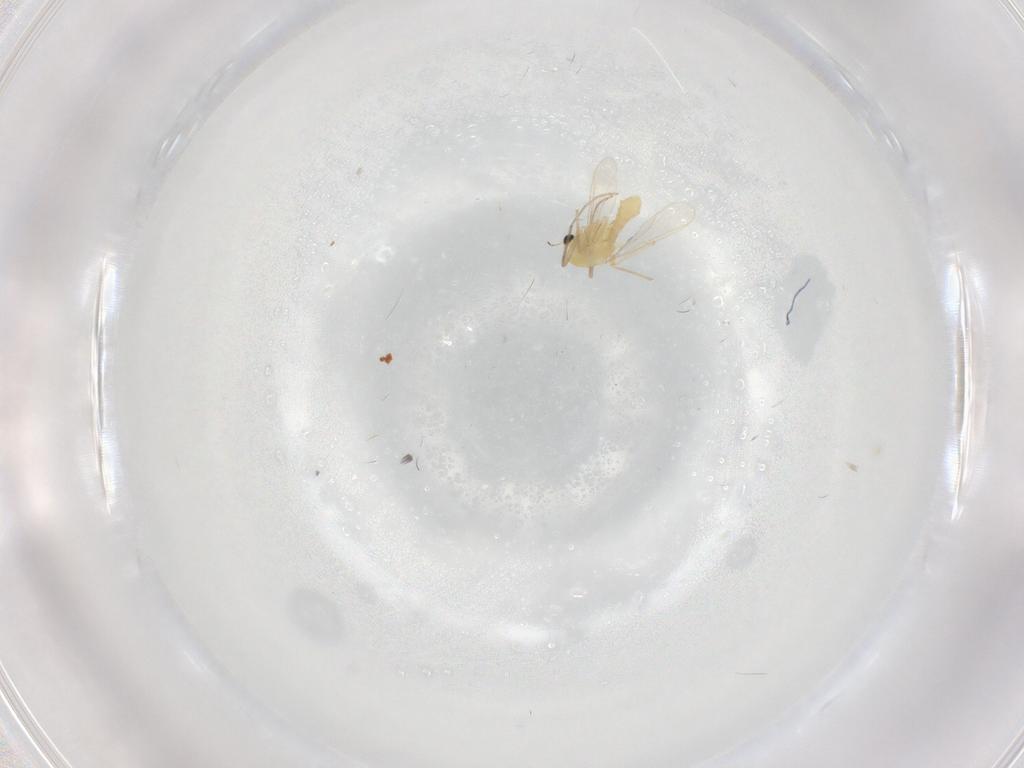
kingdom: Animalia
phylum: Arthropoda
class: Insecta
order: Diptera
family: Chironomidae
